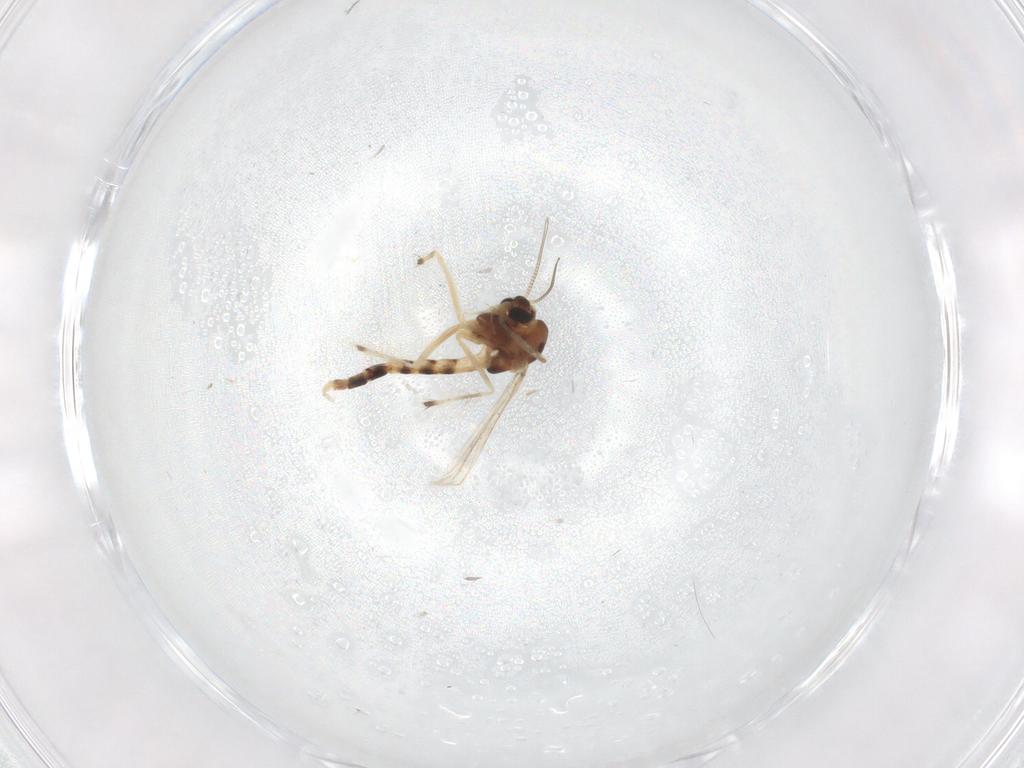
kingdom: Animalia
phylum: Arthropoda
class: Insecta
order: Diptera
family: Chironomidae
